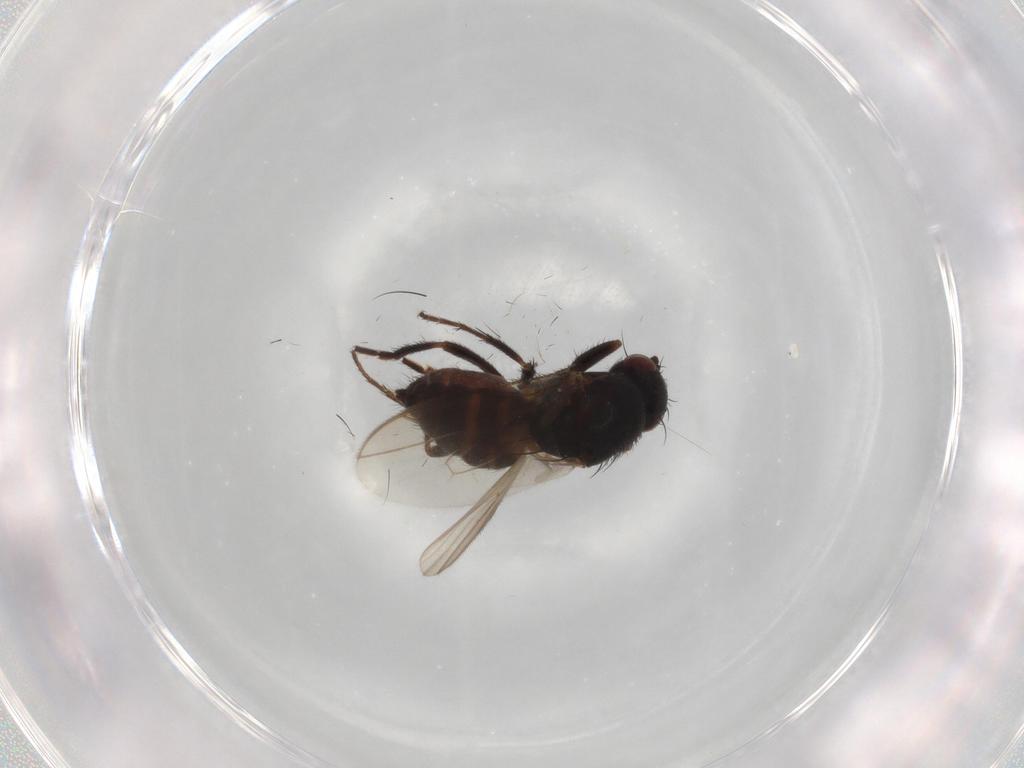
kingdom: Animalia
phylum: Arthropoda
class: Insecta
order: Diptera
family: Sphaeroceridae
